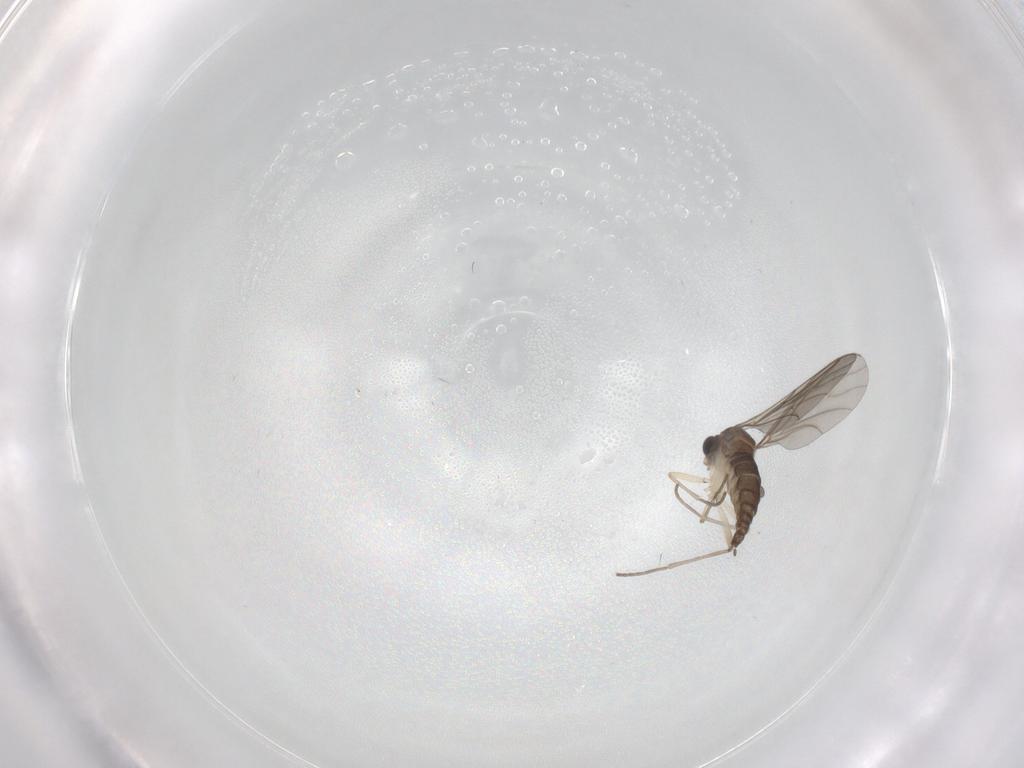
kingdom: Animalia
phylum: Arthropoda
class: Insecta
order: Diptera
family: Sciaridae
